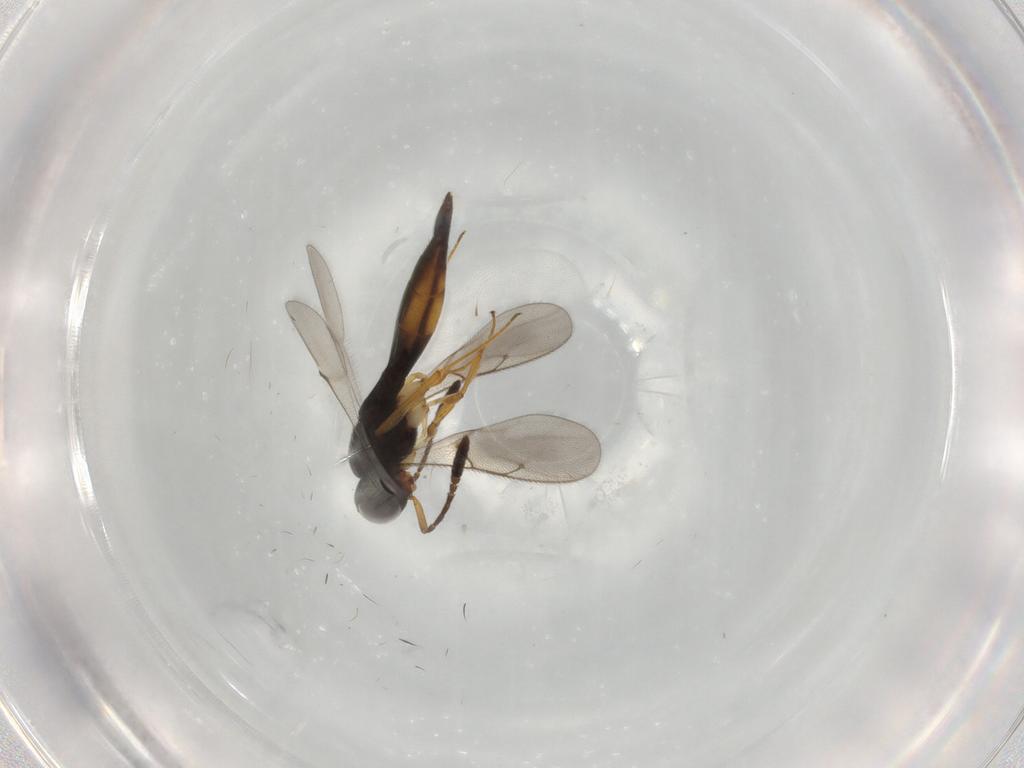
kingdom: Animalia
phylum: Arthropoda
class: Insecta
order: Hymenoptera
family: Scelionidae
